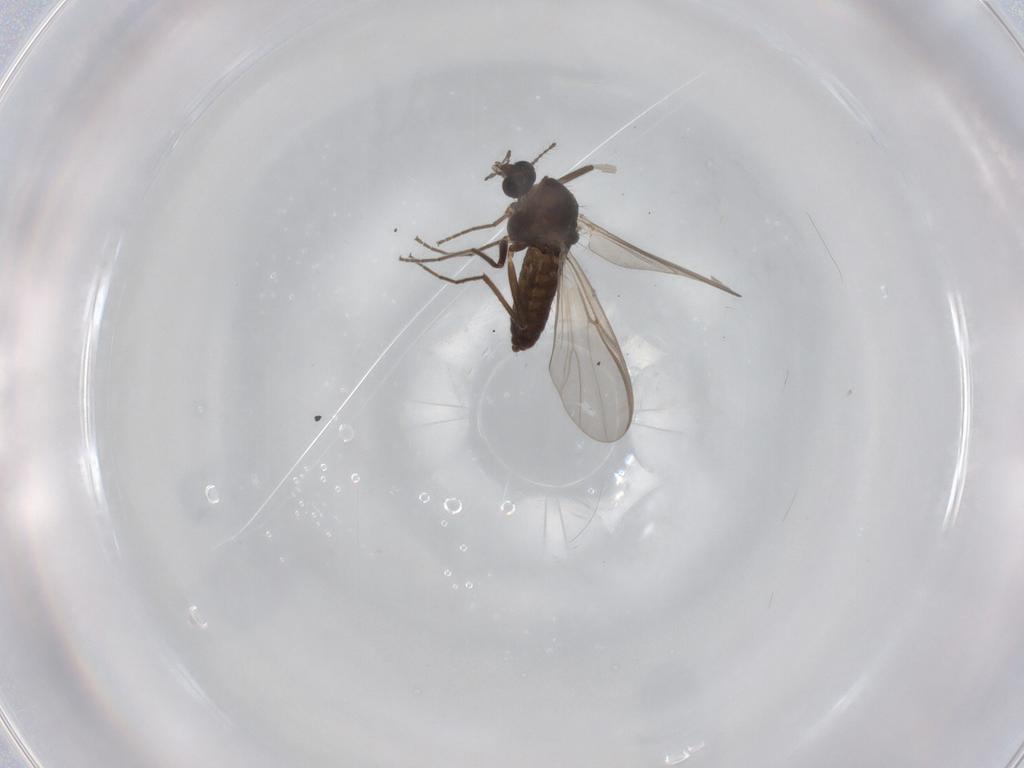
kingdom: Animalia
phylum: Arthropoda
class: Insecta
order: Diptera
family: Chironomidae
